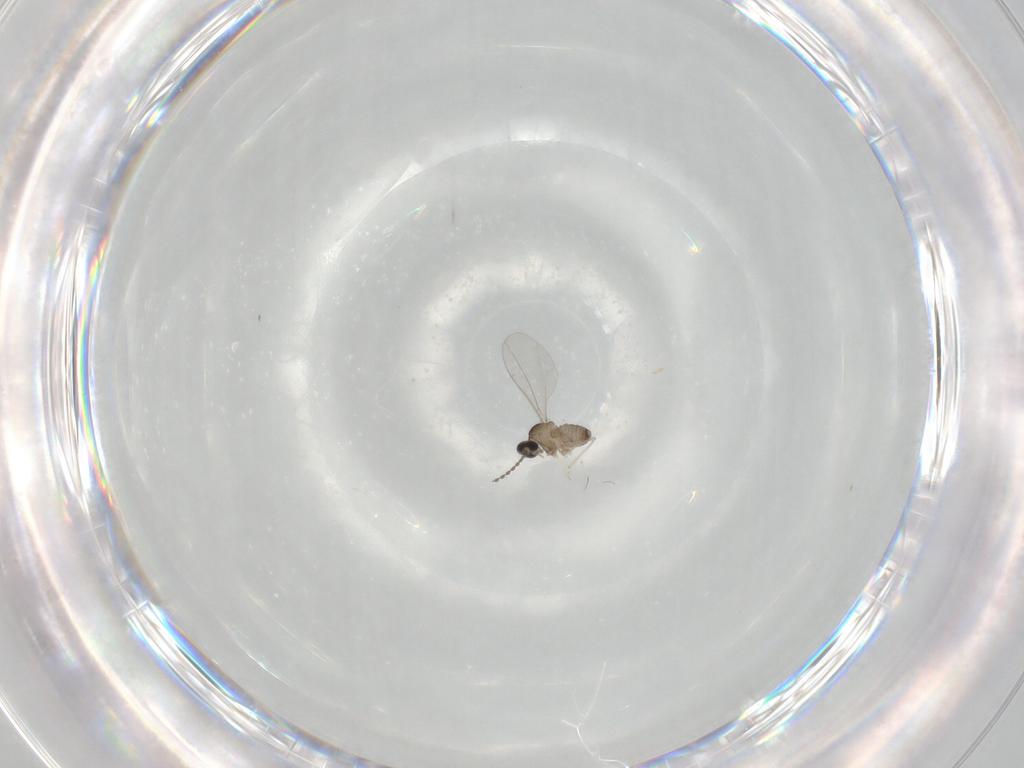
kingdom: Animalia
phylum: Arthropoda
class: Insecta
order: Diptera
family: Cecidomyiidae
